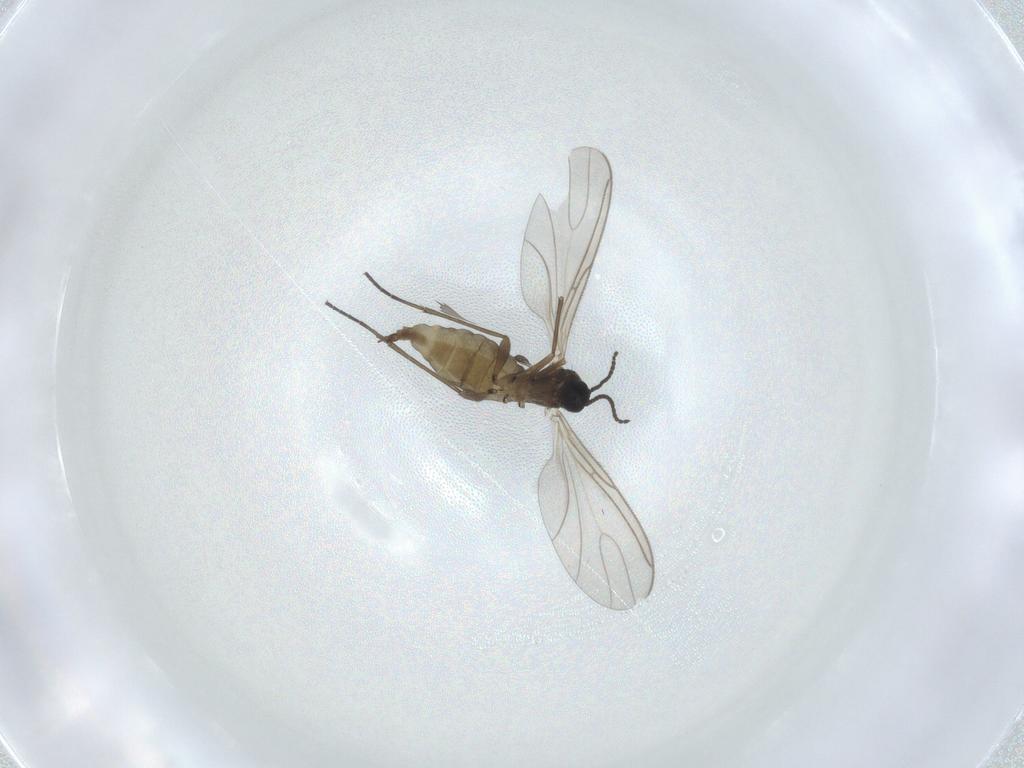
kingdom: Animalia
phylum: Arthropoda
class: Insecta
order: Diptera
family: Sciaridae
